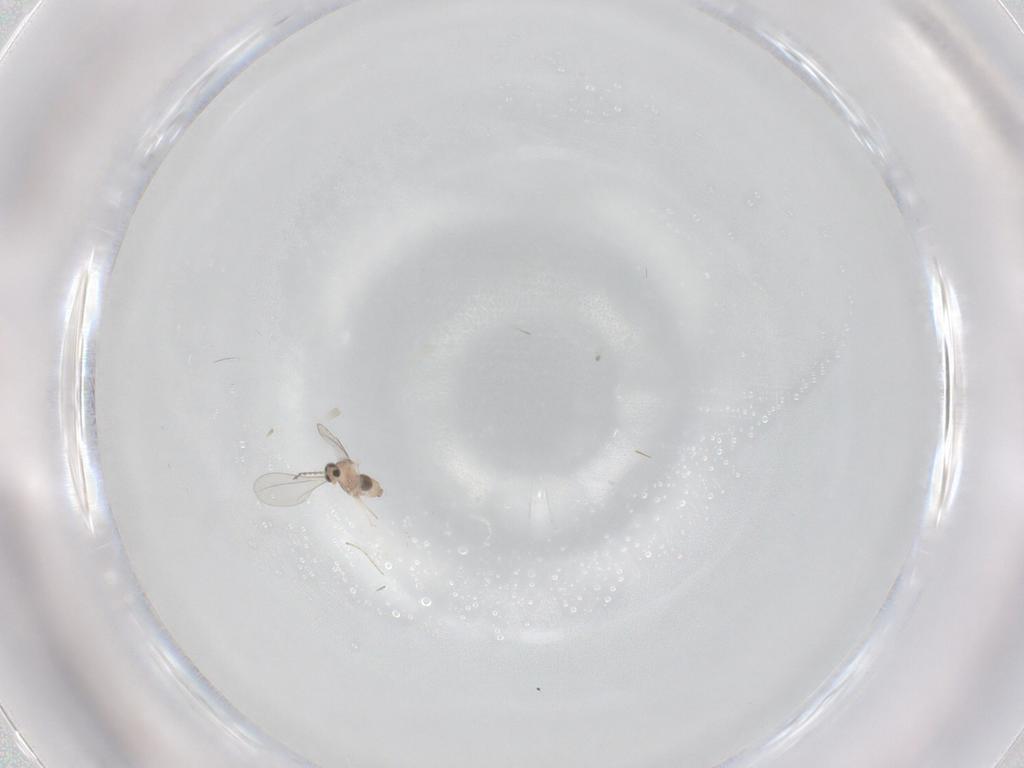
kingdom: Animalia
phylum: Arthropoda
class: Insecta
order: Diptera
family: Cecidomyiidae
